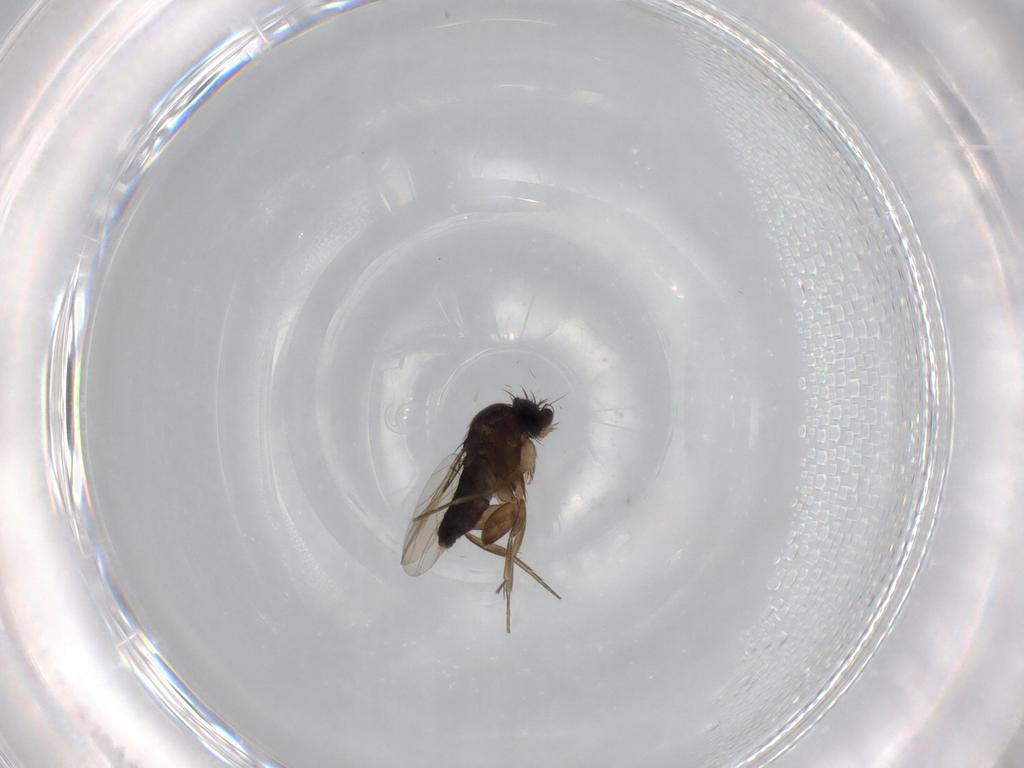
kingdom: Animalia
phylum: Arthropoda
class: Insecta
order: Diptera
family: Phoridae
